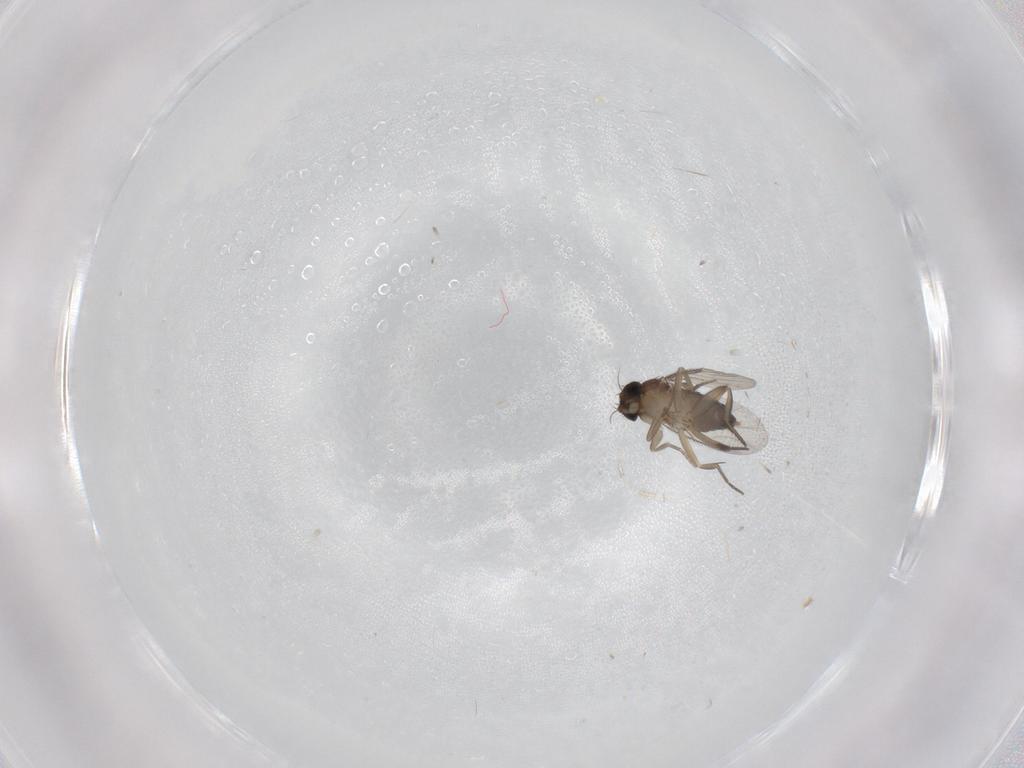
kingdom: Animalia
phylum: Arthropoda
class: Insecta
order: Diptera
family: Phoridae
